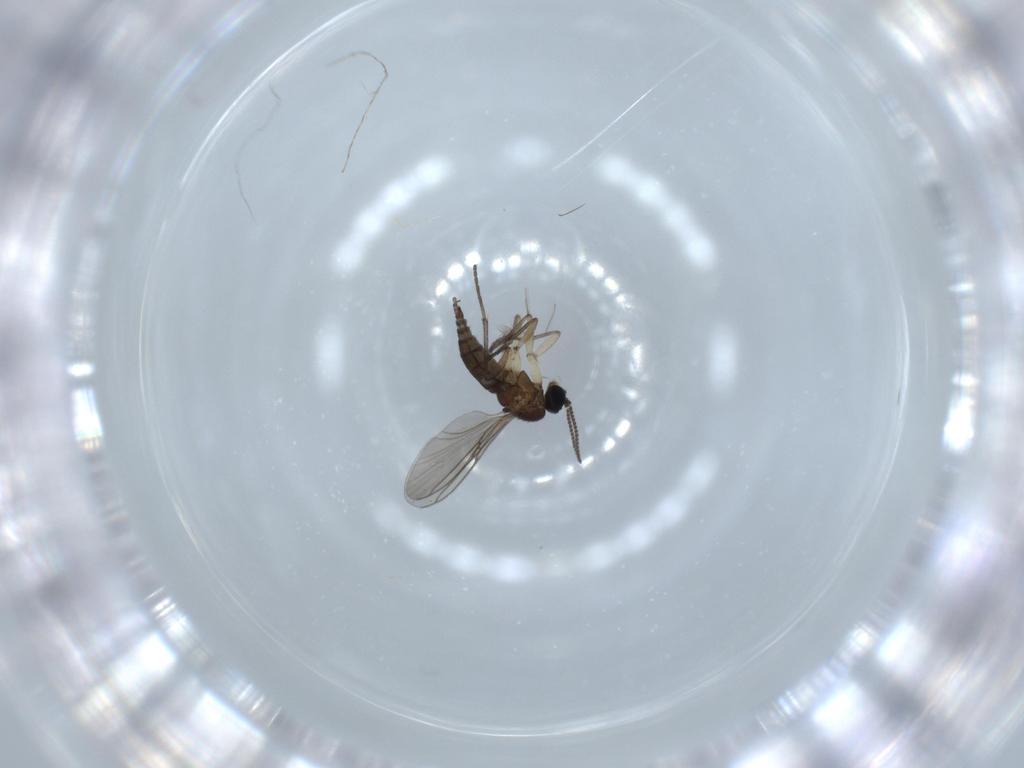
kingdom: Animalia
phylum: Arthropoda
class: Insecta
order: Diptera
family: Sciaridae
